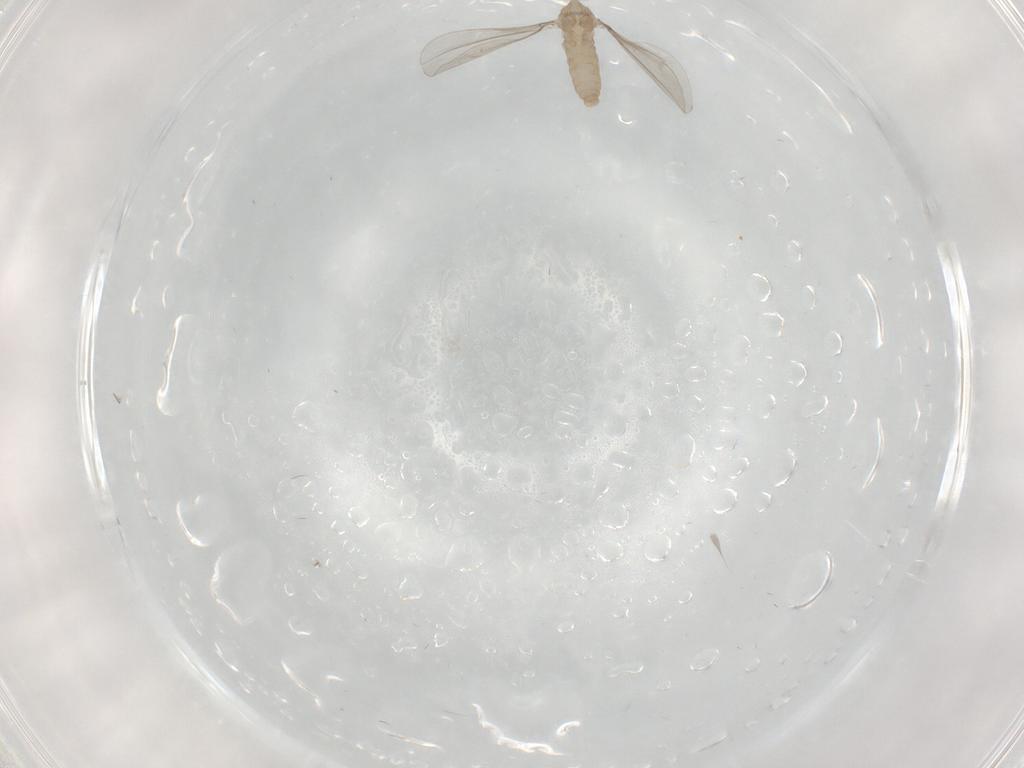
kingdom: Animalia
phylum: Arthropoda
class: Insecta
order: Diptera
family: Phoridae
